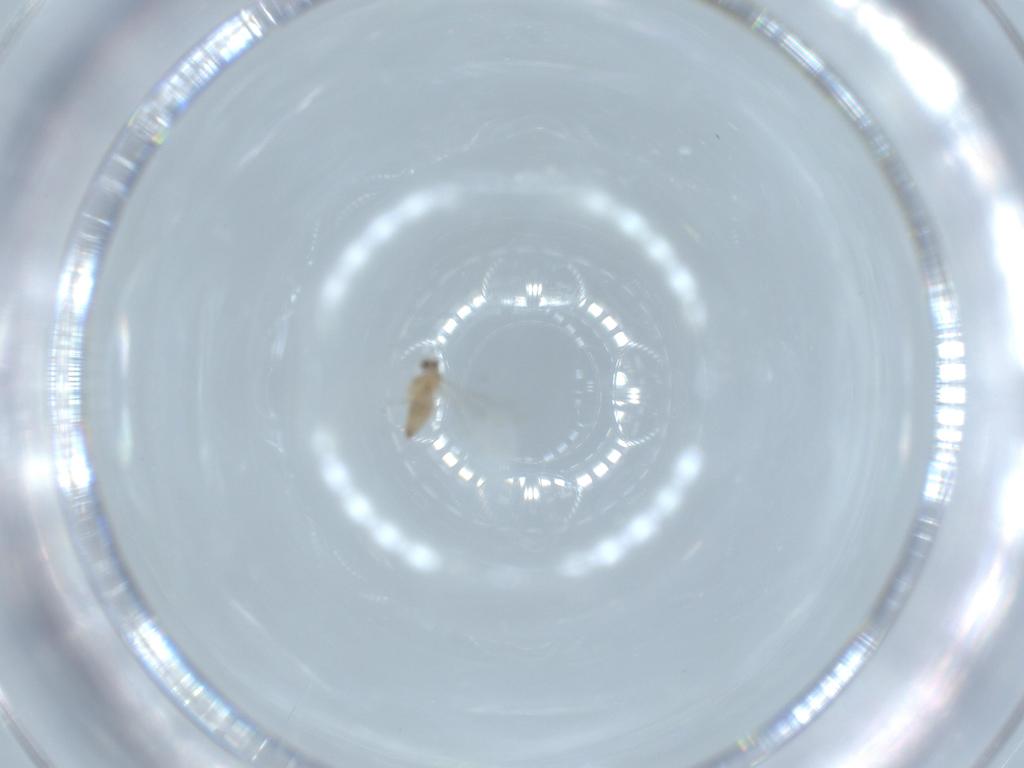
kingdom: Animalia
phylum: Arthropoda
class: Insecta
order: Diptera
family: Cecidomyiidae
